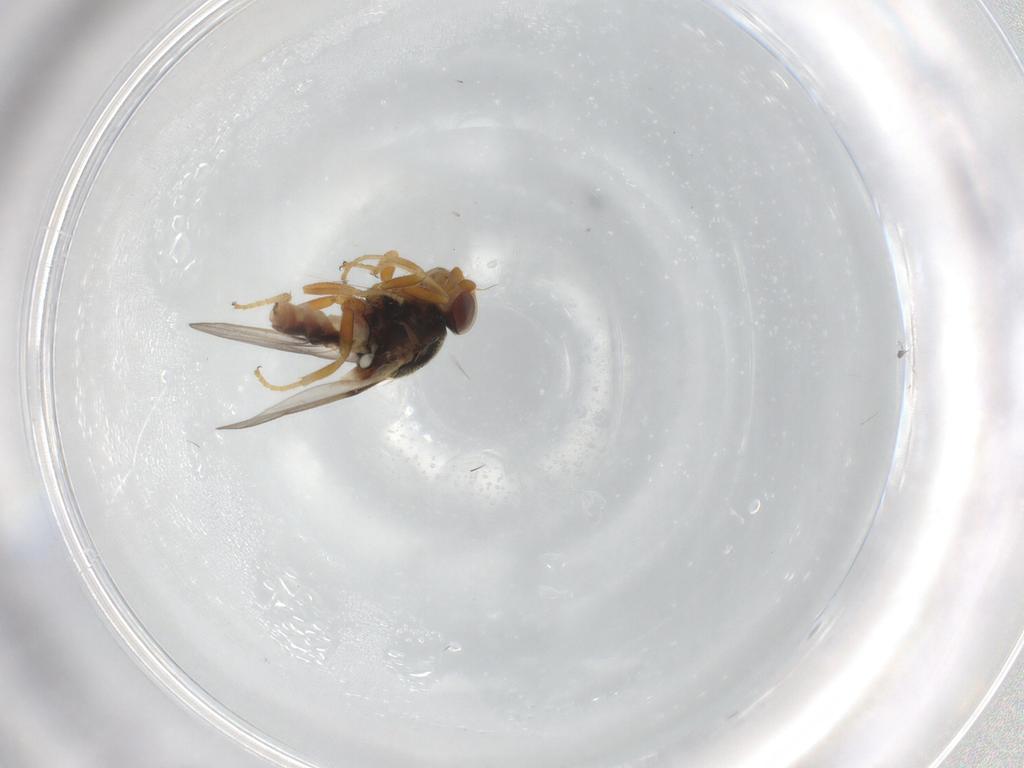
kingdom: Animalia
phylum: Arthropoda
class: Insecta
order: Diptera
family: Chloropidae
